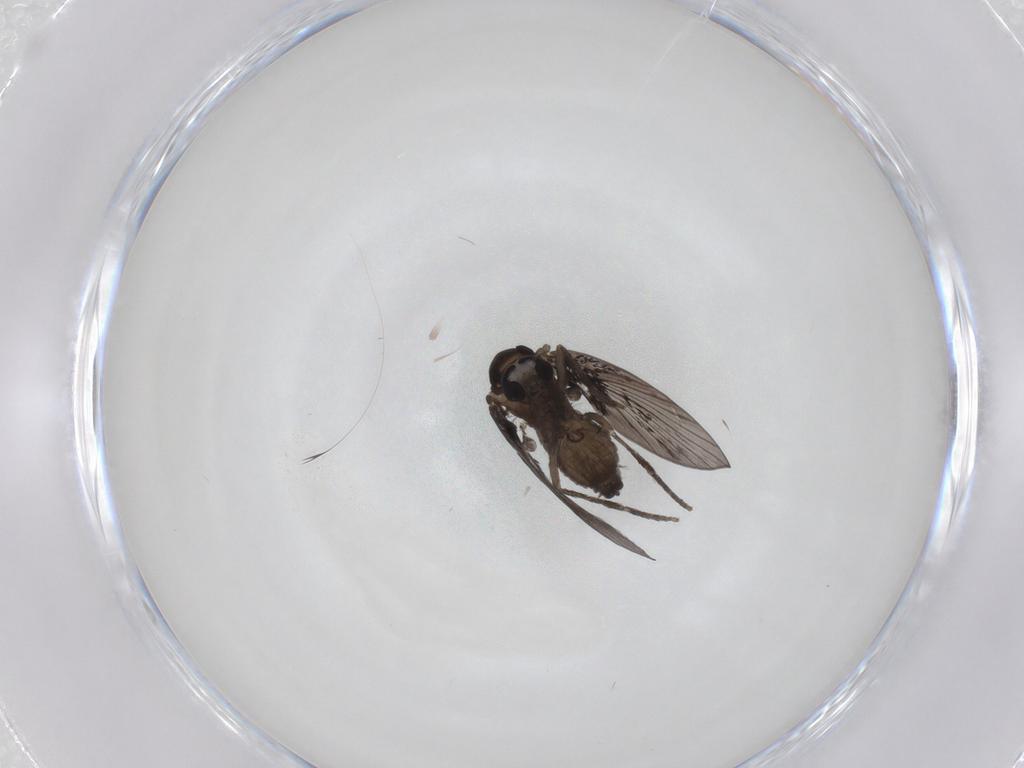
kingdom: Animalia
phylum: Arthropoda
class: Insecta
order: Diptera
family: Psychodidae
